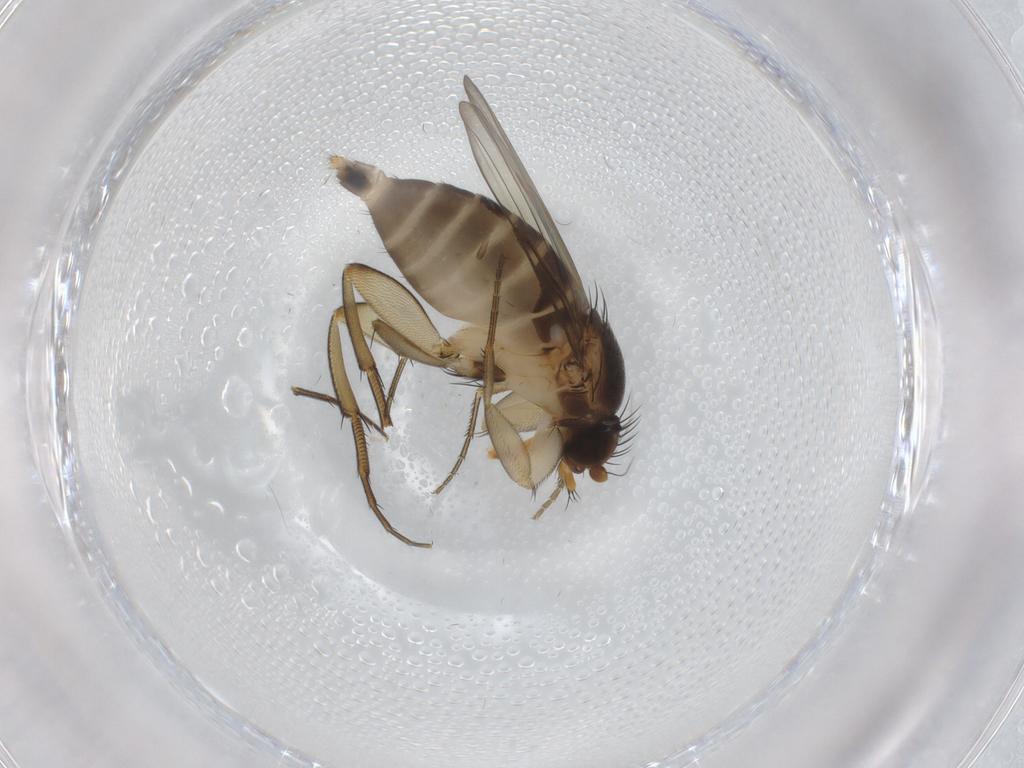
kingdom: Animalia
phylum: Arthropoda
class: Insecta
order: Diptera
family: Phoridae
